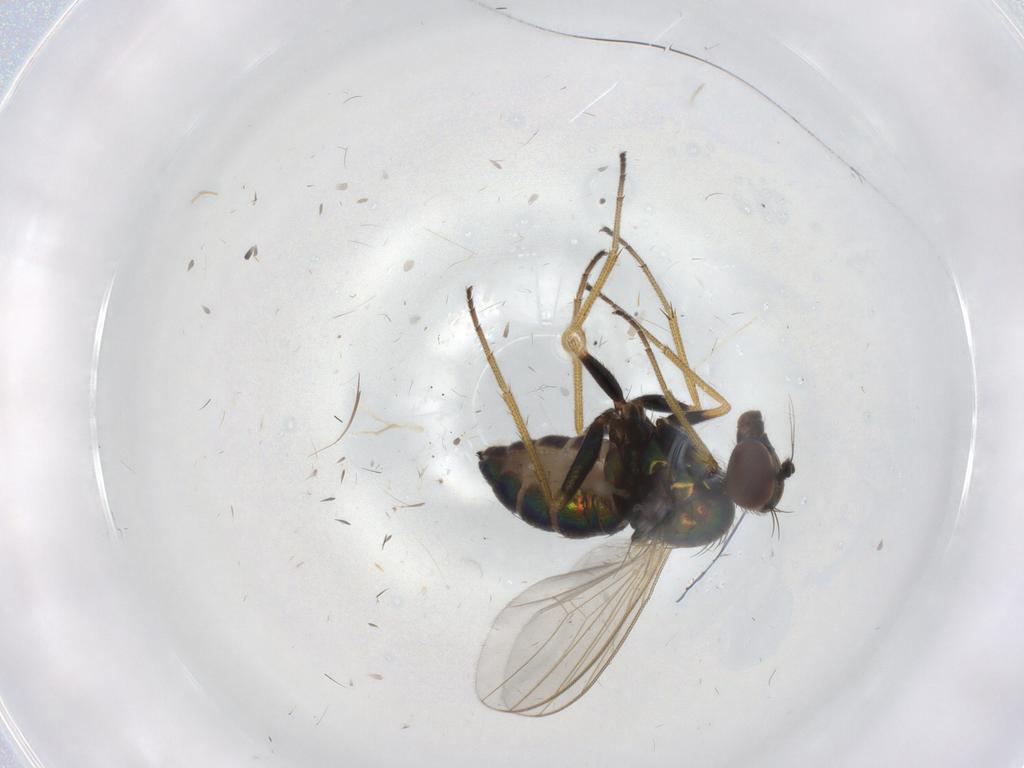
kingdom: Animalia
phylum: Arthropoda
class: Insecta
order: Diptera
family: Dolichopodidae
